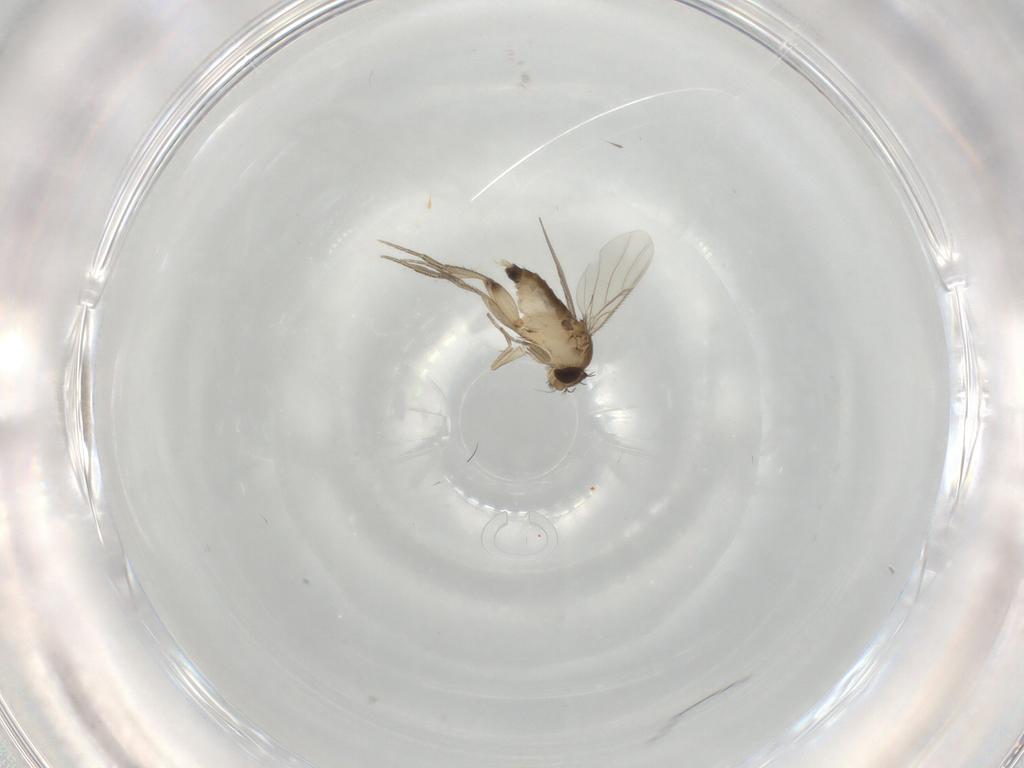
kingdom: Animalia
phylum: Arthropoda
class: Insecta
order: Diptera
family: Phoridae
